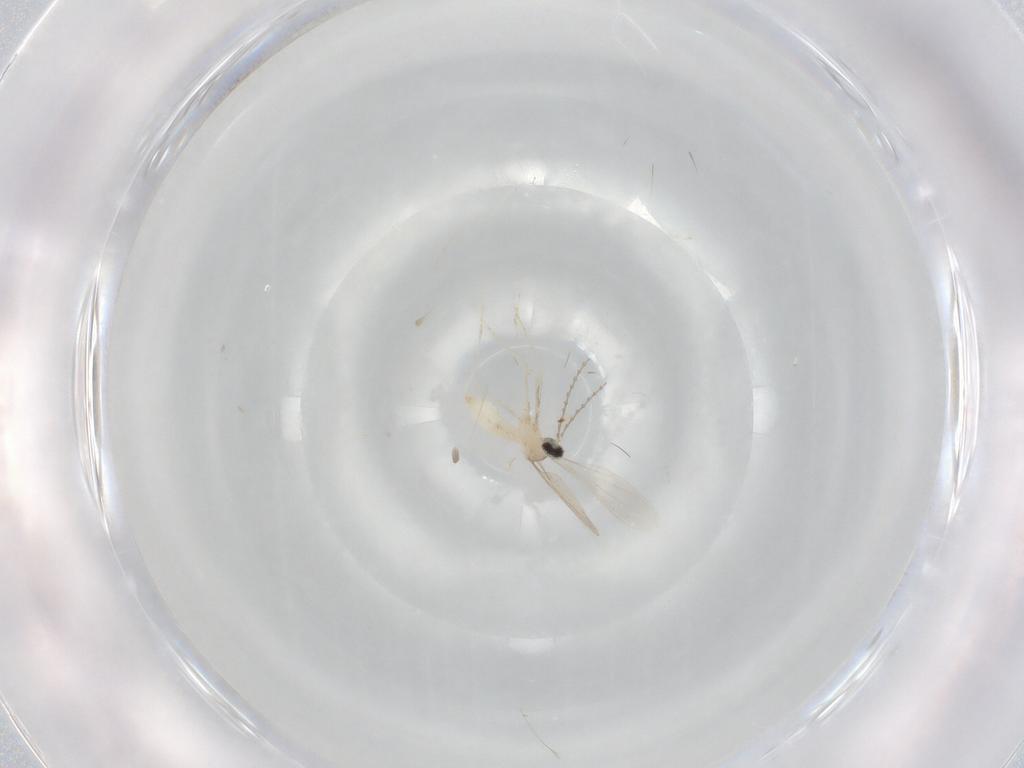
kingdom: Animalia
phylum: Arthropoda
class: Insecta
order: Diptera
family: Cecidomyiidae
